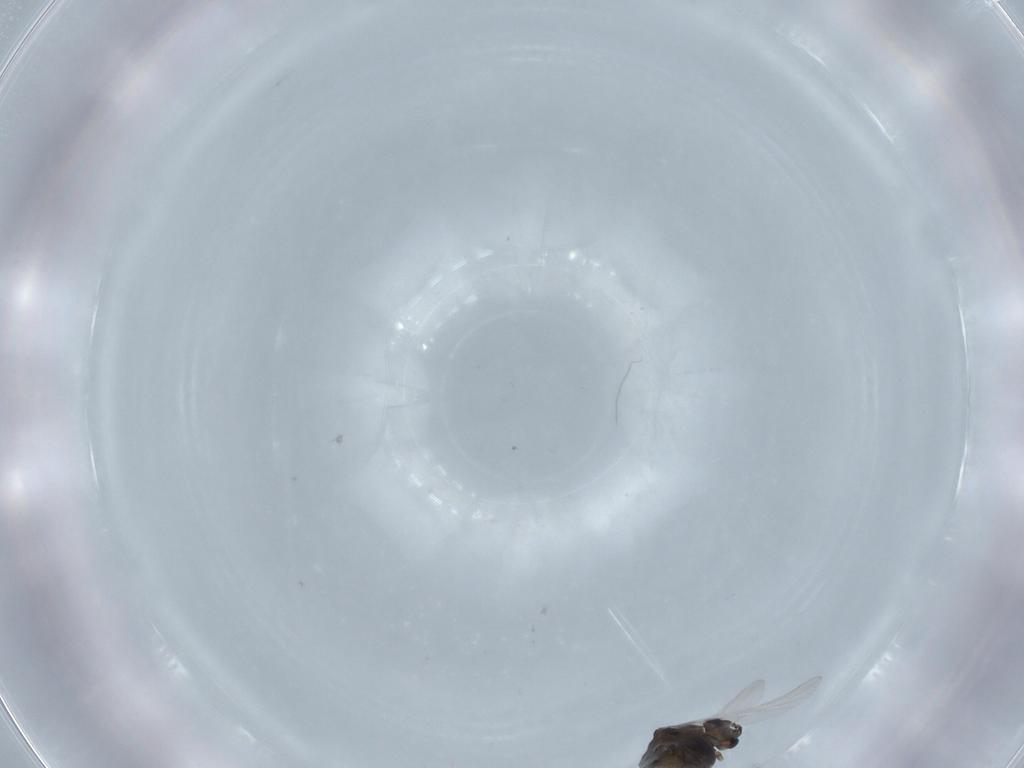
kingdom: Animalia
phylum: Arthropoda
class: Insecta
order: Diptera
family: Chironomidae
